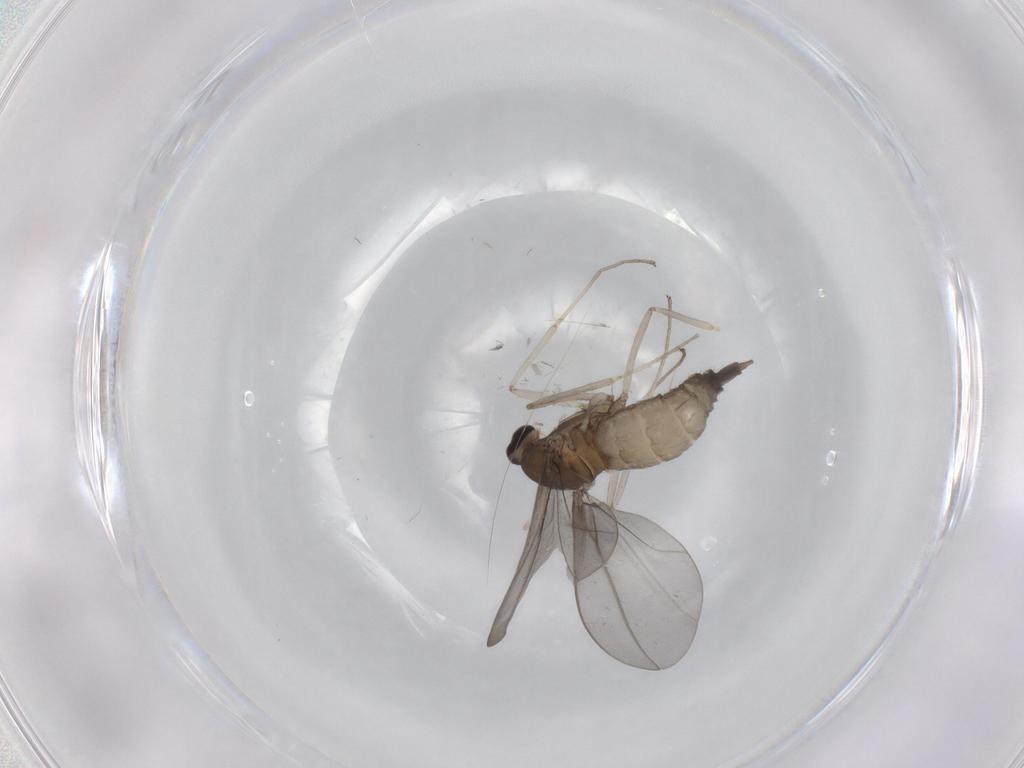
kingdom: Animalia
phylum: Arthropoda
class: Insecta
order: Diptera
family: Cecidomyiidae
